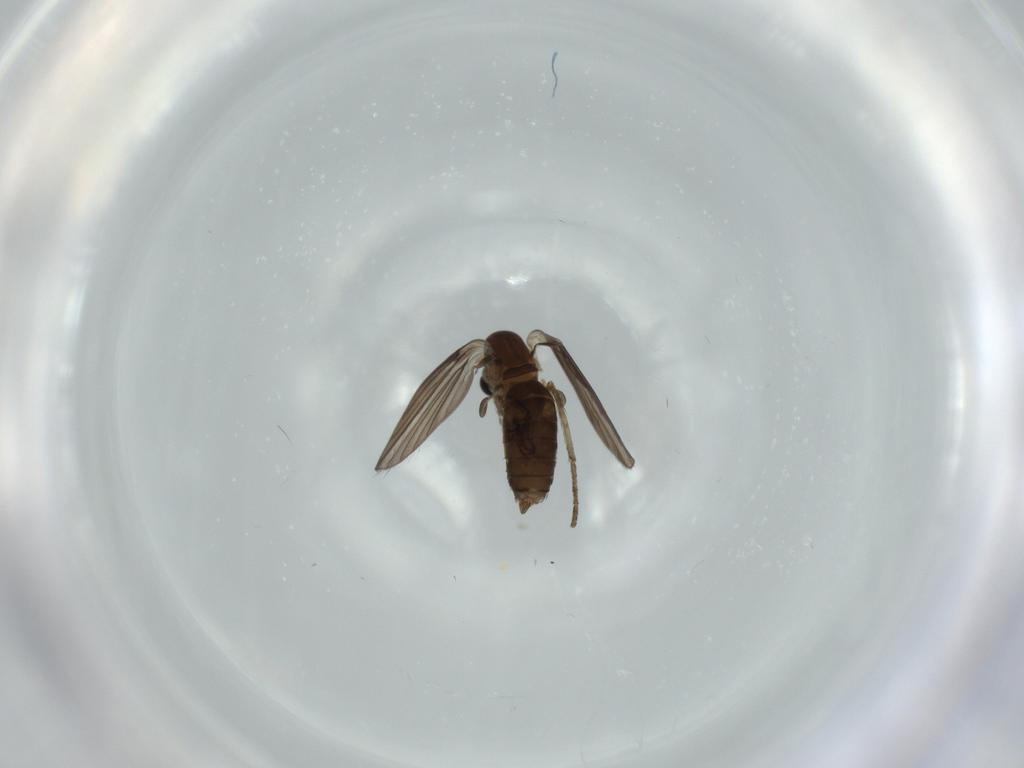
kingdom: Animalia
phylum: Arthropoda
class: Insecta
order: Diptera
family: Psychodidae
